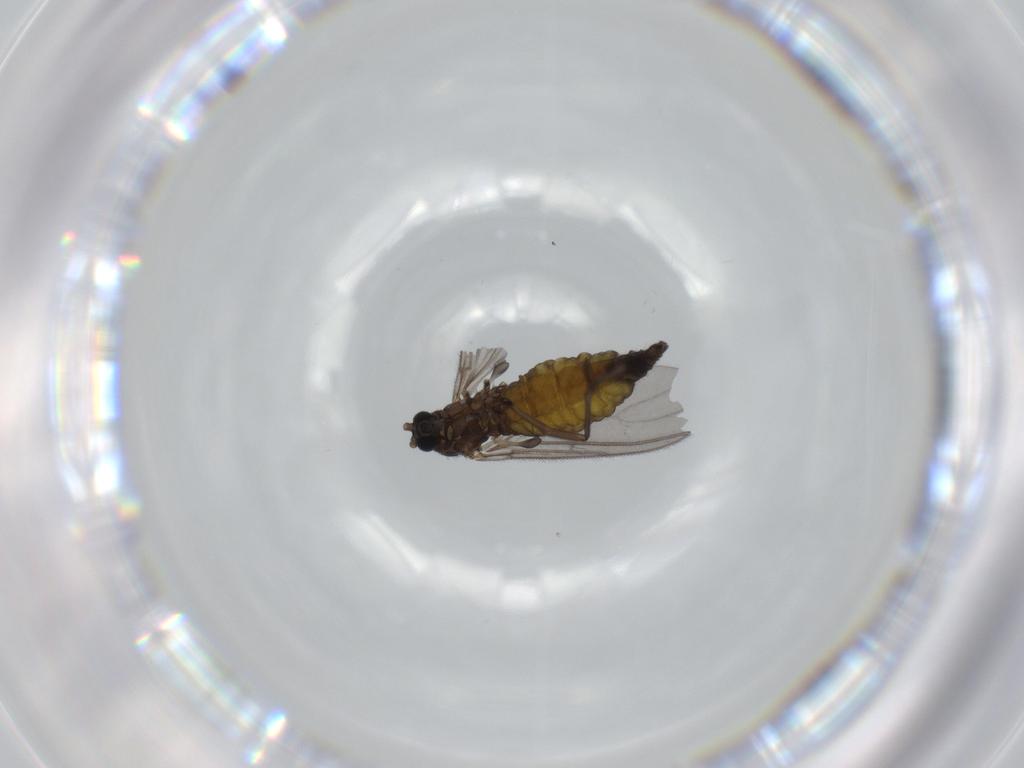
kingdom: Animalia
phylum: Arthropoda
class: Insecta
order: Diptera
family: Sciaridae
